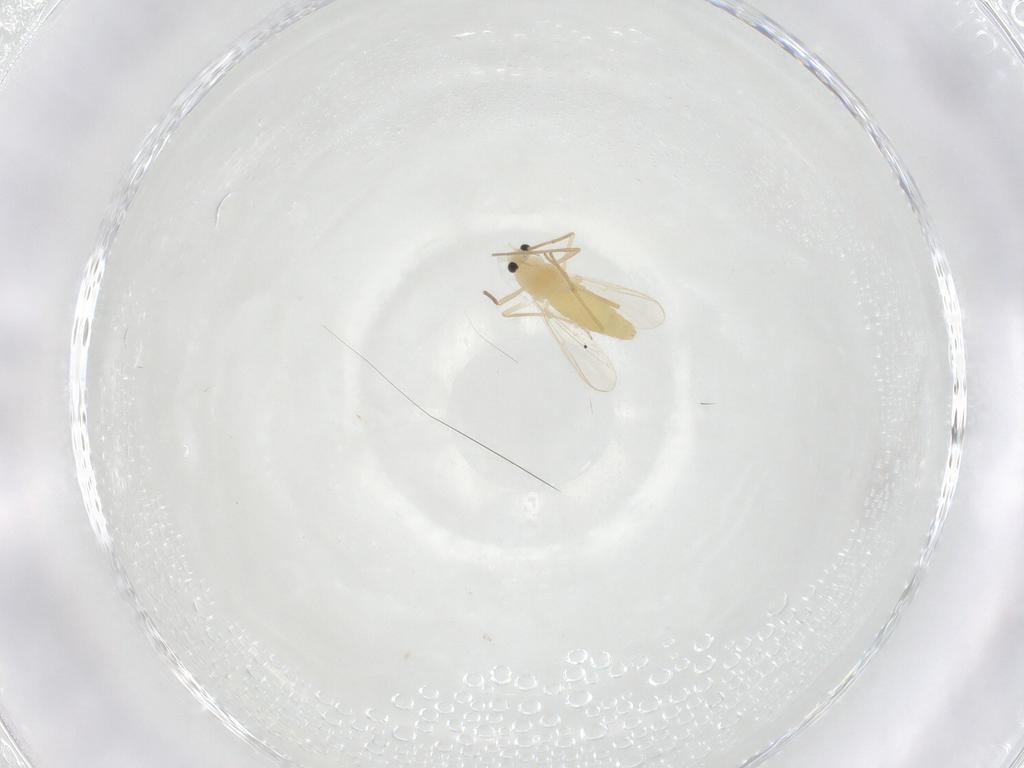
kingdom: Animalia
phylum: Arthropoda
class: Insecta
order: Diptera
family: Chironomidae
